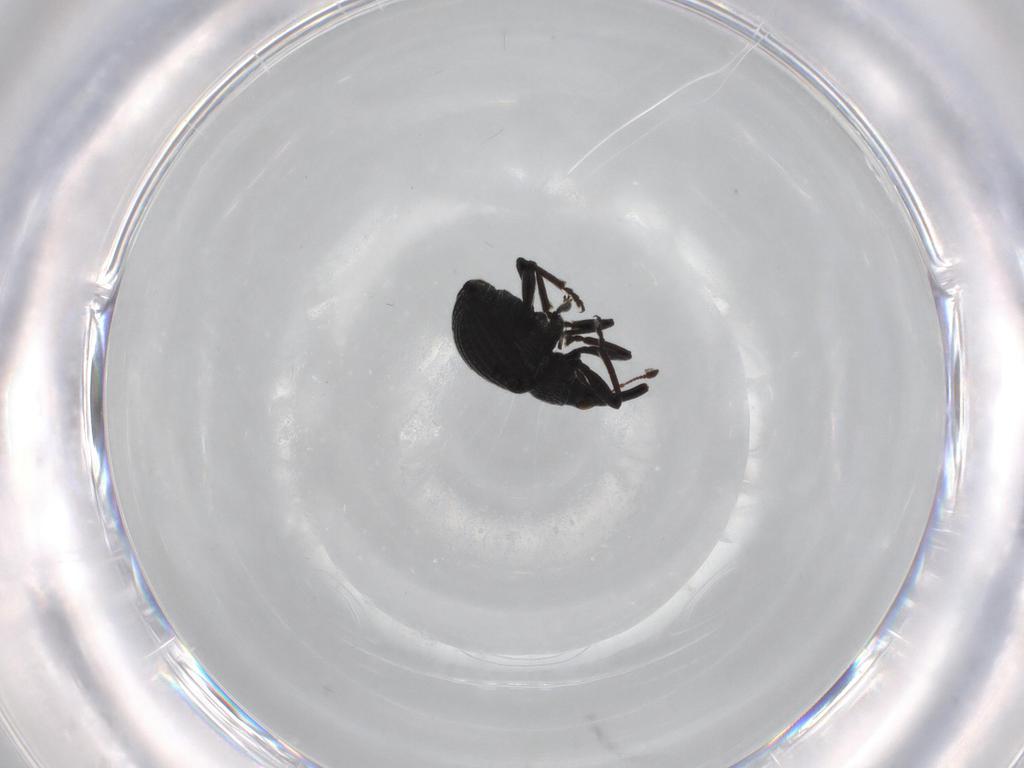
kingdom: Animalia
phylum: Arthropoda
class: Insecta
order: Coleoptera
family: Brentidae
